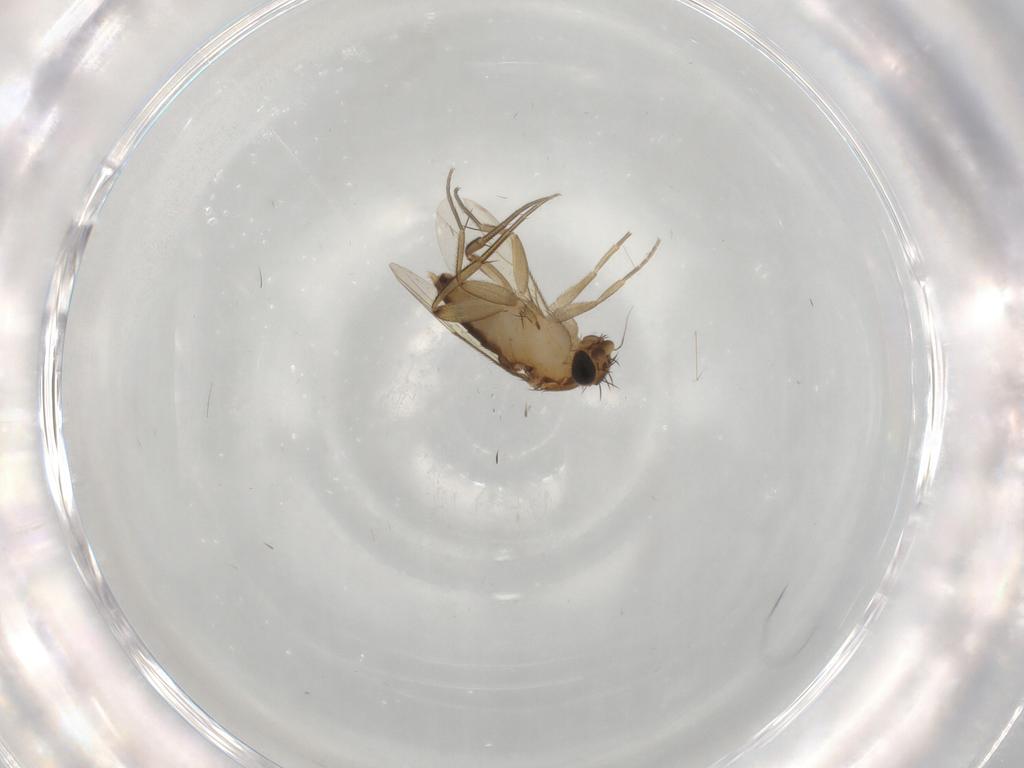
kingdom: Animalia
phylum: Arthropoda
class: Insecta
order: Diptera
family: Phoridae
